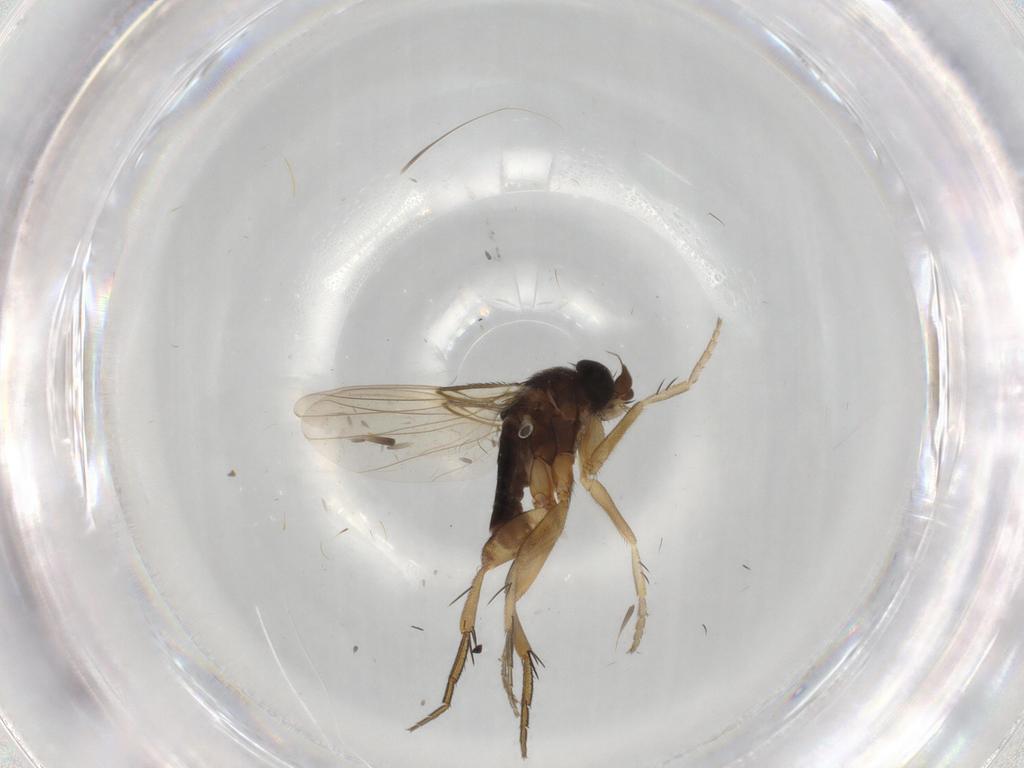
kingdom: Animalia
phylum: Arthropoda
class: Insecta
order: Diptera
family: Phoridae
